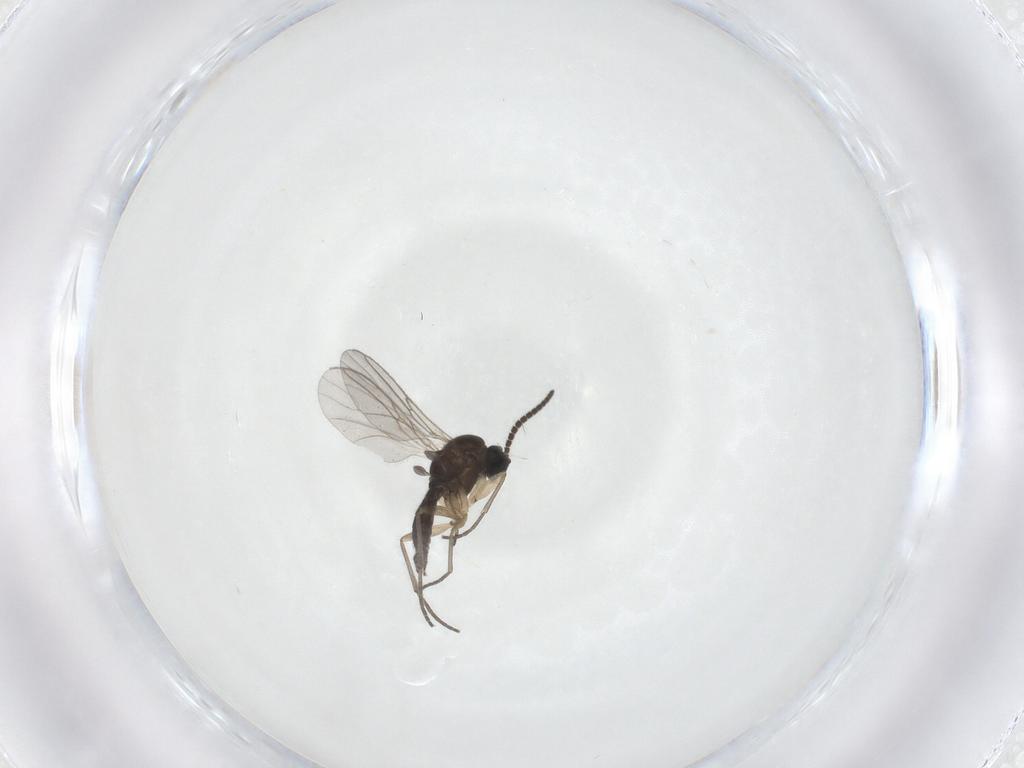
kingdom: Animalia
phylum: Arthropoda
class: Insecta
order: Diptera
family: Sciaridae
